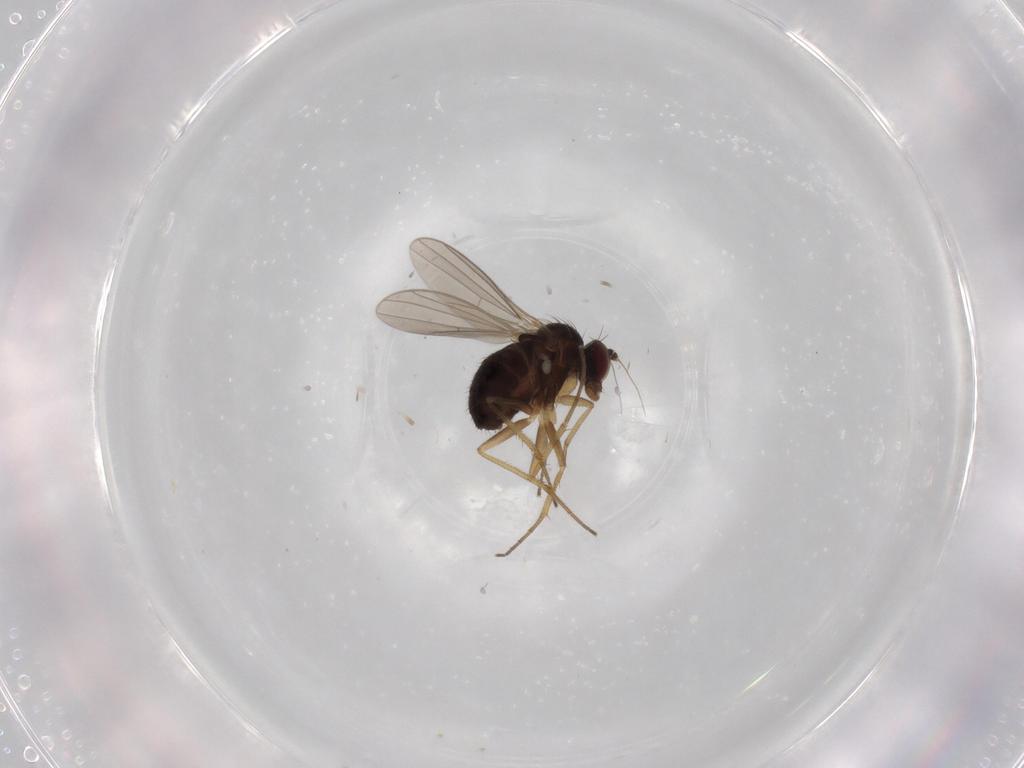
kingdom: Animalia
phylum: Arthropoda
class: Insecta
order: Diptera
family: Dolichopodidae
